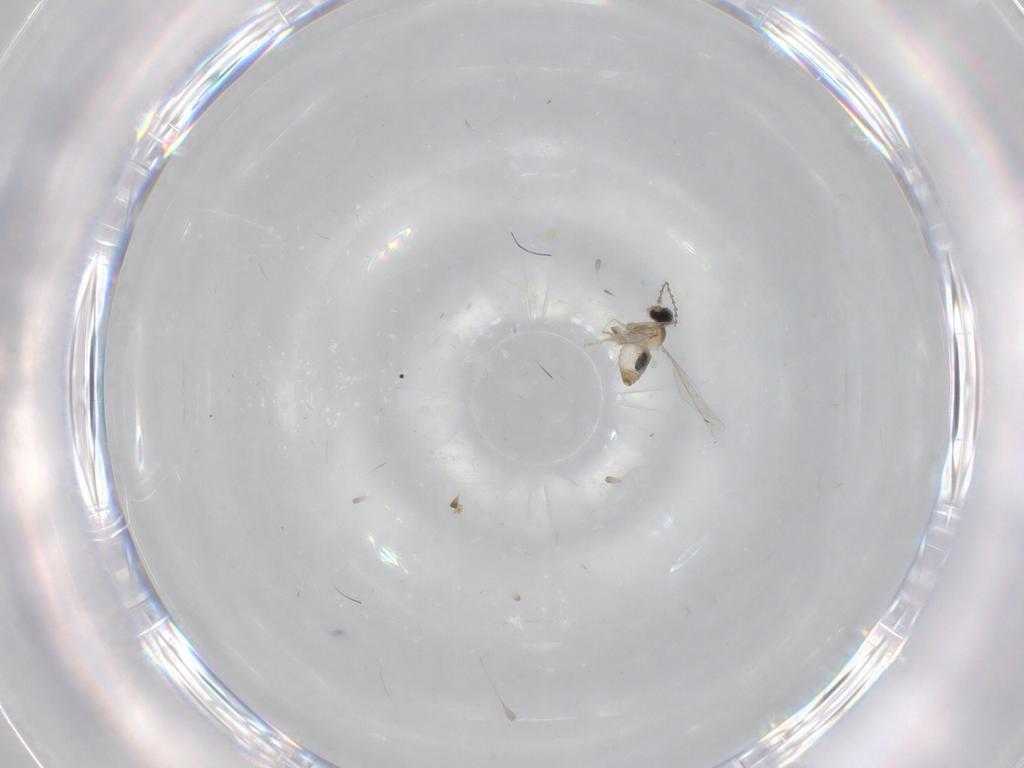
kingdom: Animalia
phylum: Arthropoda
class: Insecta
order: Diptera
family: Cecidomyiidae
